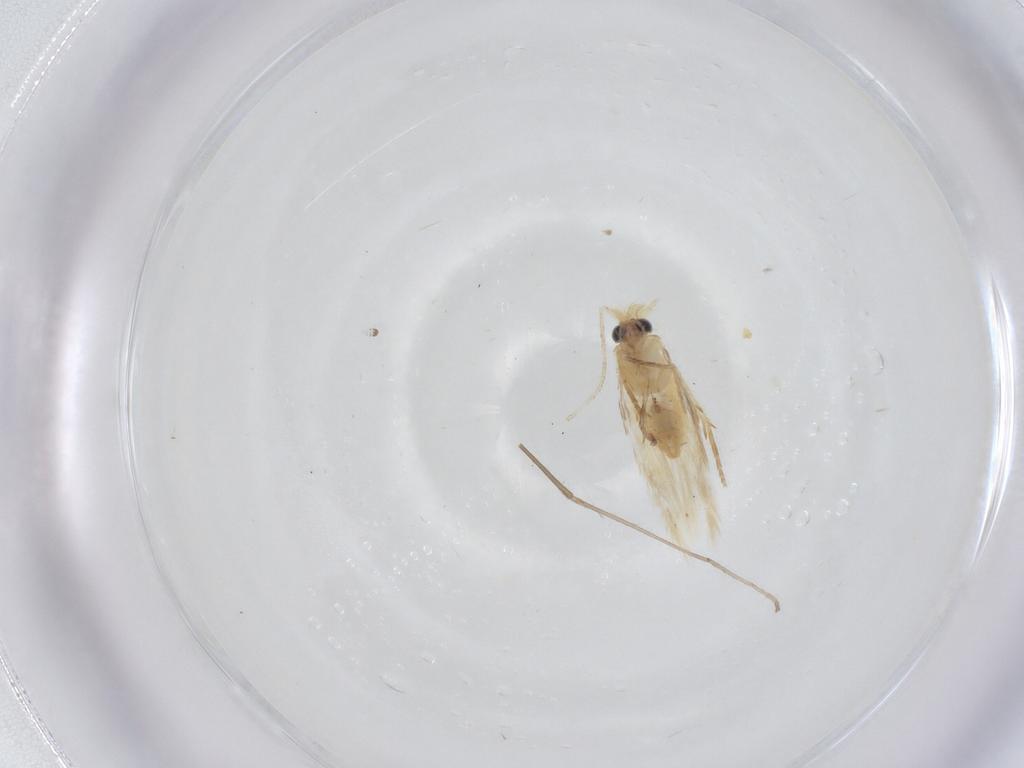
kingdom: Animalia
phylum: Arthropoda
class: Insecta
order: Lepidoptera
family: Nepticulidae
